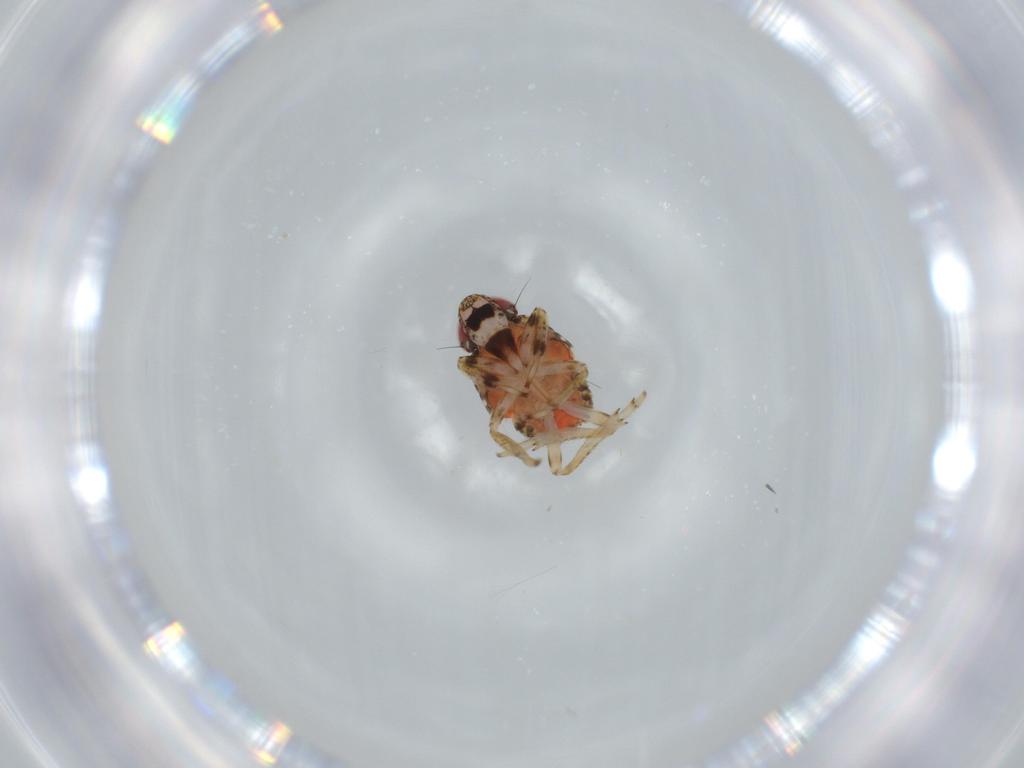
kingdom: Animalia
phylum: Arthropoda
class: Insecta
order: Hemiptera
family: Issidae
